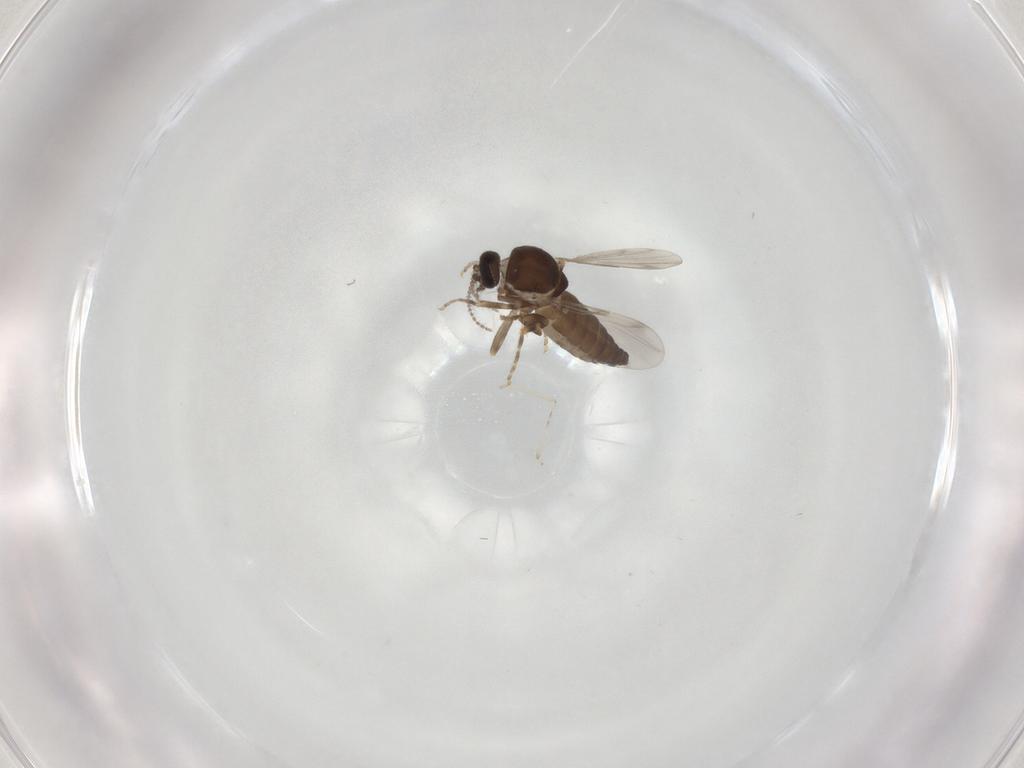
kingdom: Animalia
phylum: Arthropoda
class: Insecta
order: Diptera
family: Ceratopogonidae
